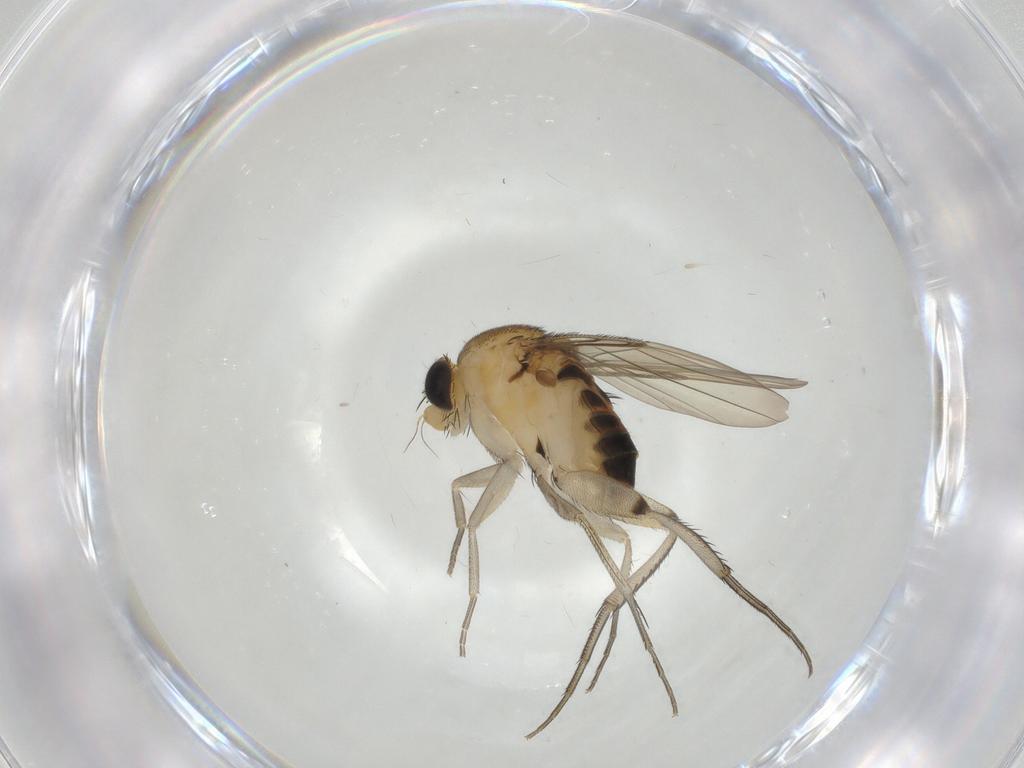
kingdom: Animalia
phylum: Arthropoda
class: Insecta
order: Diptera
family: Phoridae
